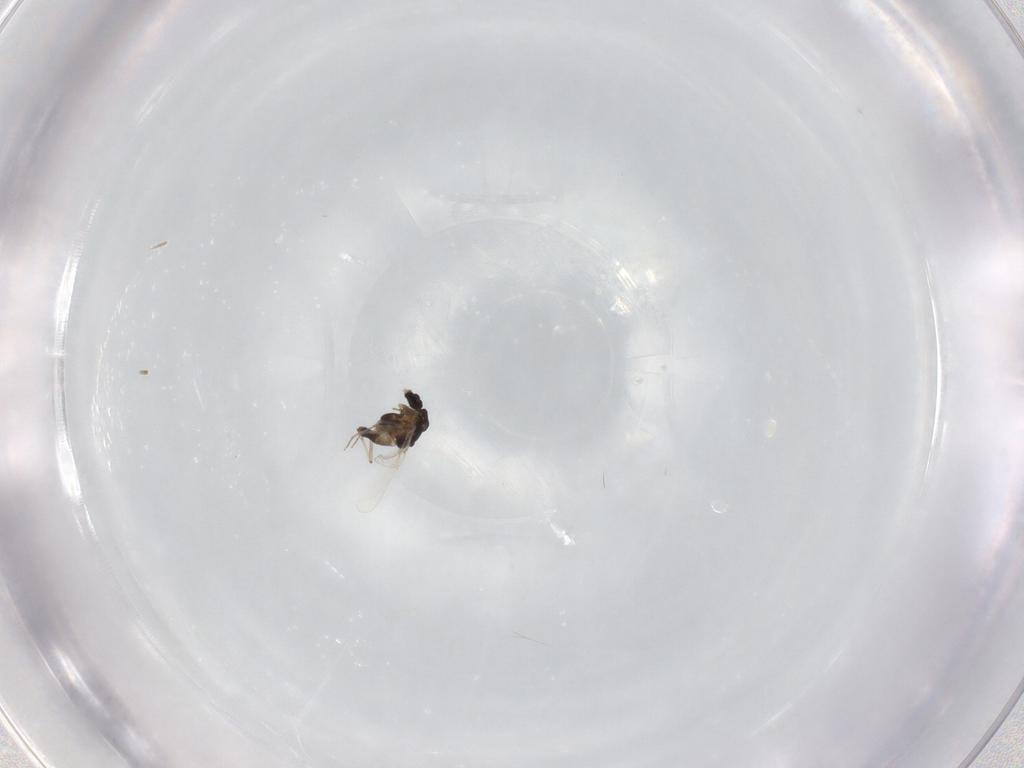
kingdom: Animalia
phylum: Arthropoda
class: Insecta
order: Diptera
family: Chironomidae
